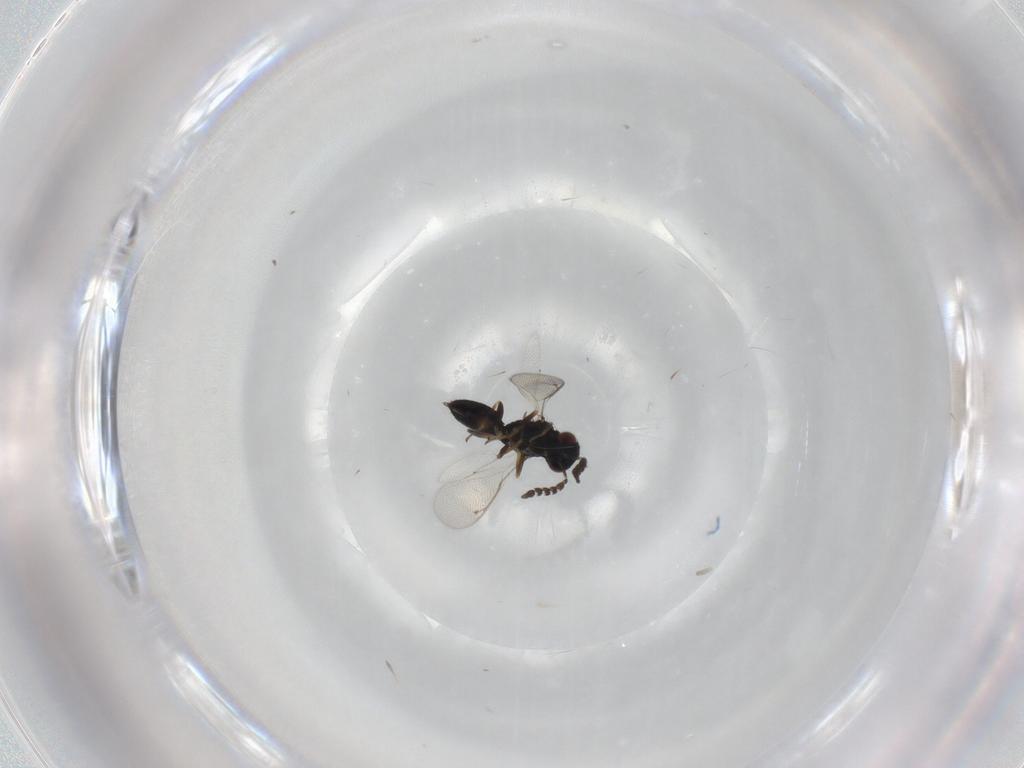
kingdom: Animalia
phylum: Arthropoda
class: Insecta
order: Hymenoptera
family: Eulophidae
